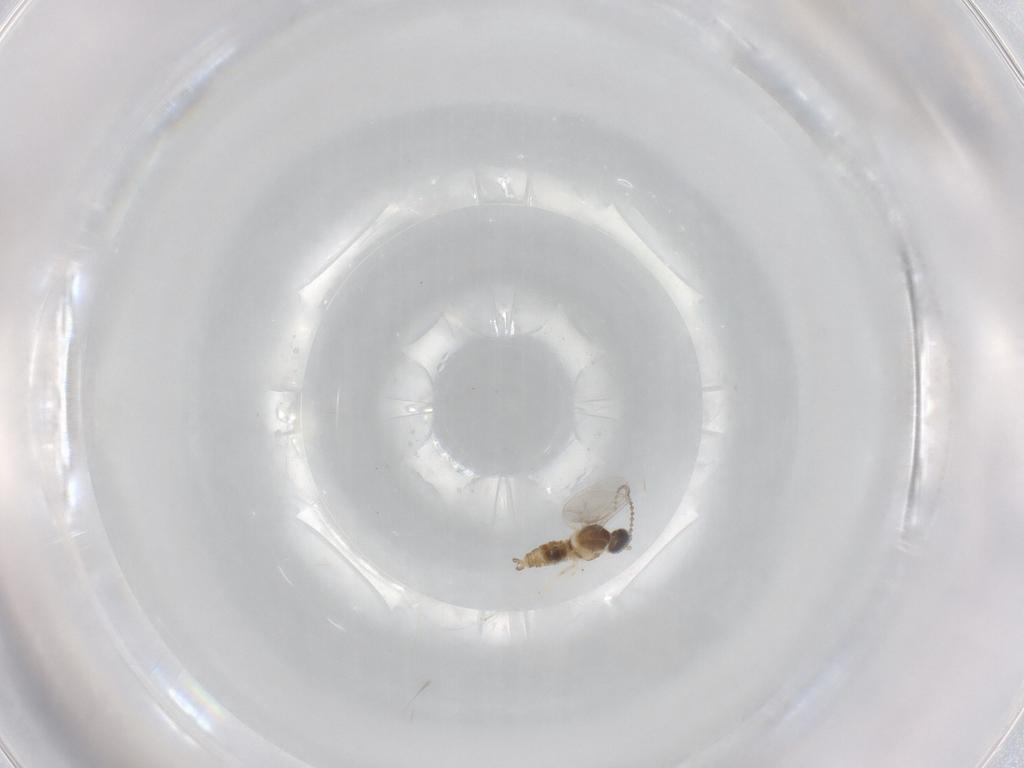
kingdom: Animalia
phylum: Arthropoda
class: Insecta
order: Diptera
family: Cecidomyiidae
